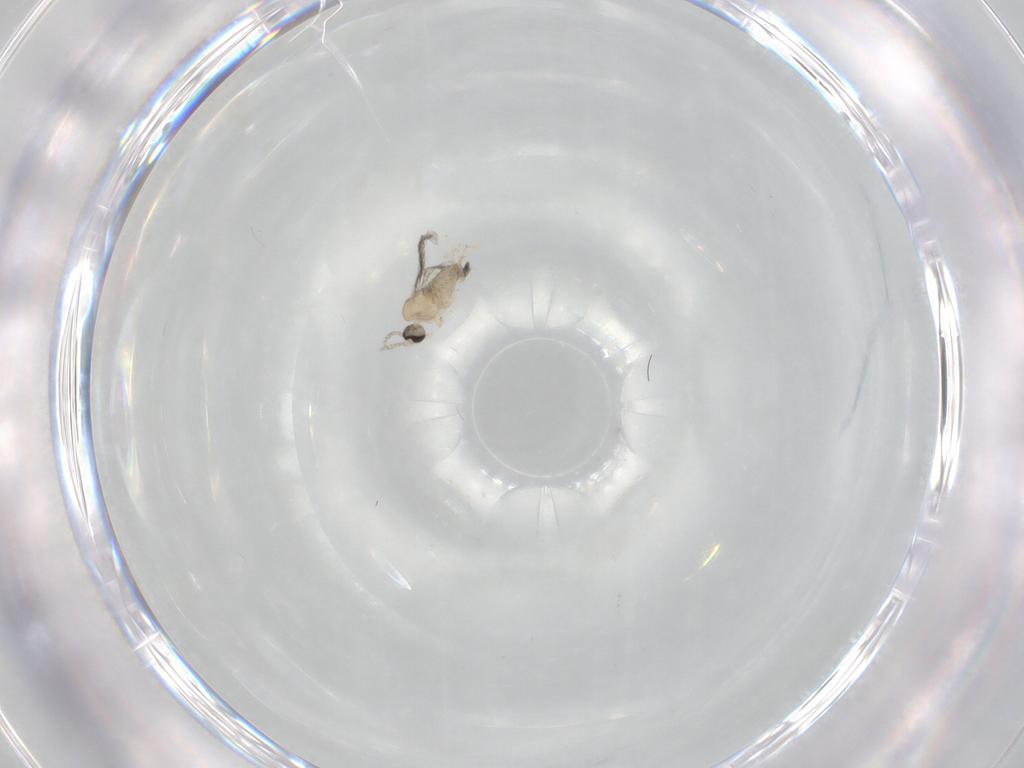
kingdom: Animalia
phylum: Arthropoda
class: Insecta
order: Diptera
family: Cecidomyiidae
